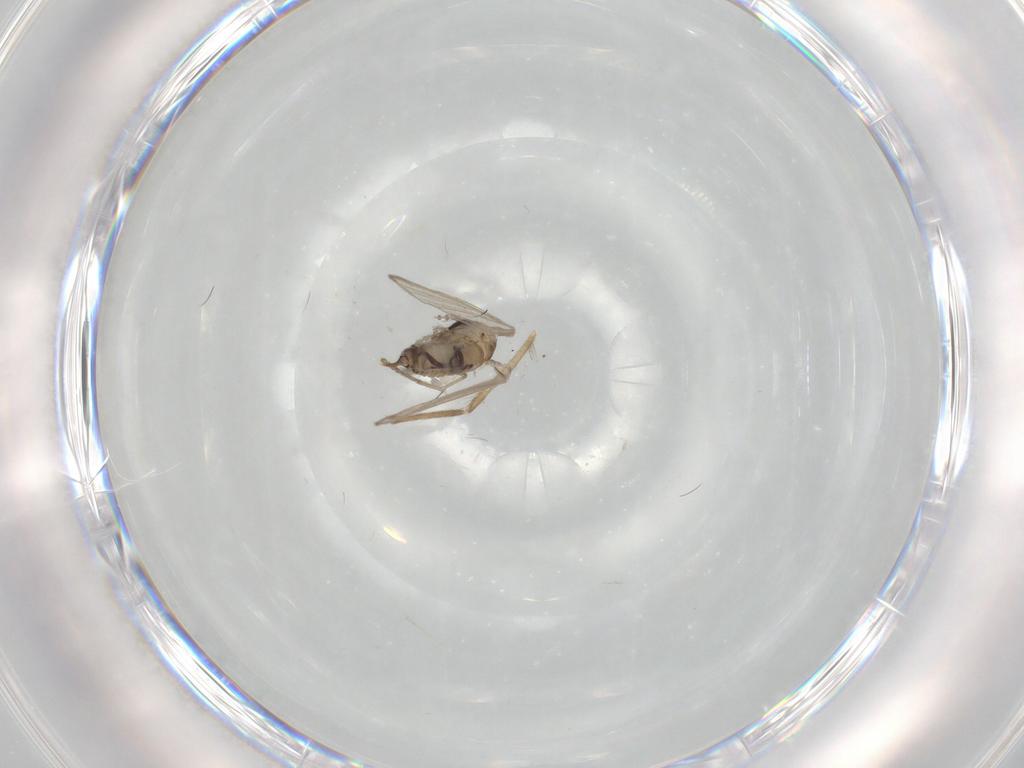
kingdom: Animalia
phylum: Arthropoda
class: Insecta
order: Diptera
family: Psychodidae
